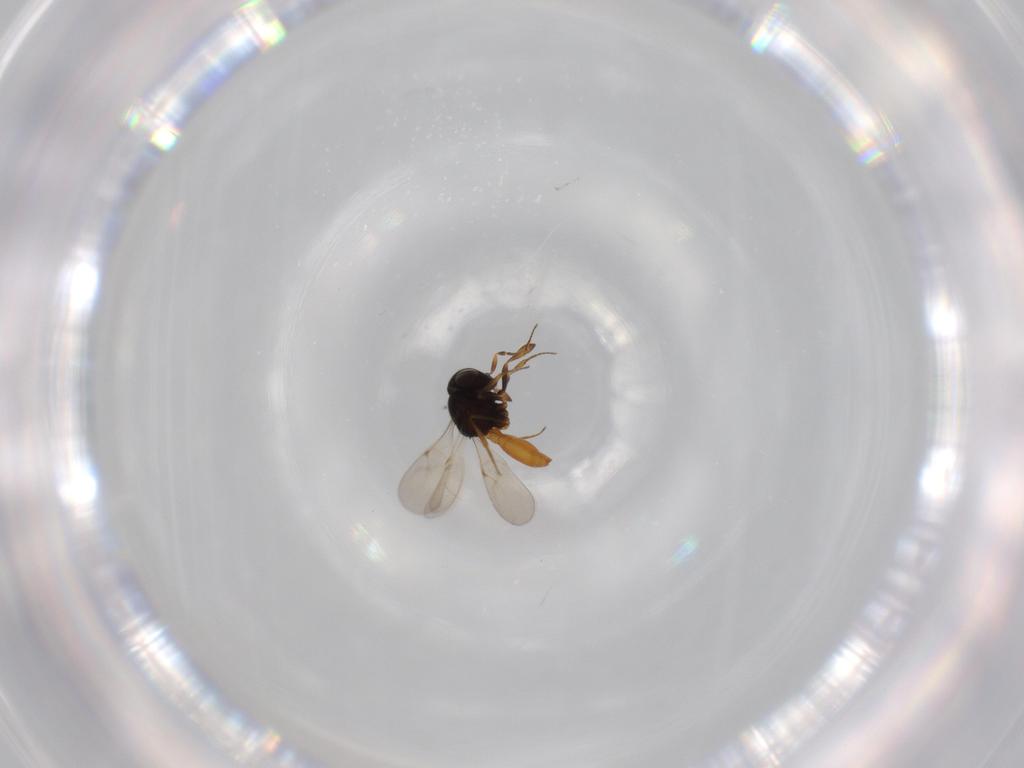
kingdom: Animalia
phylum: Arthropoda
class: Insecta
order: Hymenoptera
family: Scelionidae
